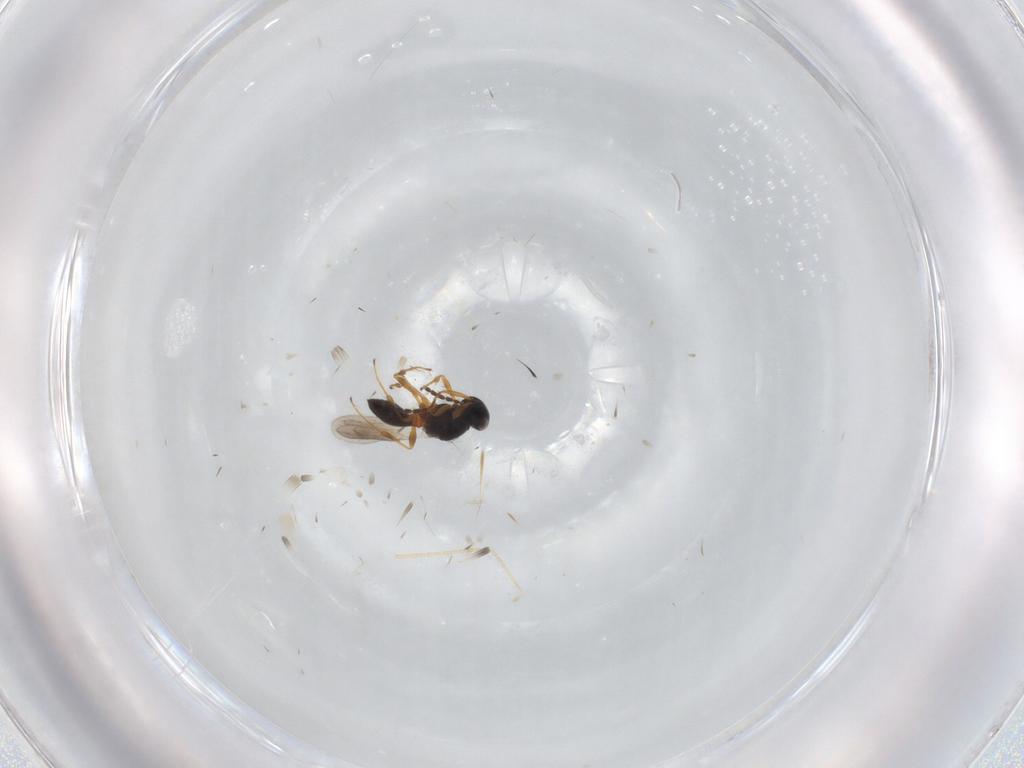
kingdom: Animalia
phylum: Arthropoda
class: Insecta
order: Hymenoptera
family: Platygastridae
